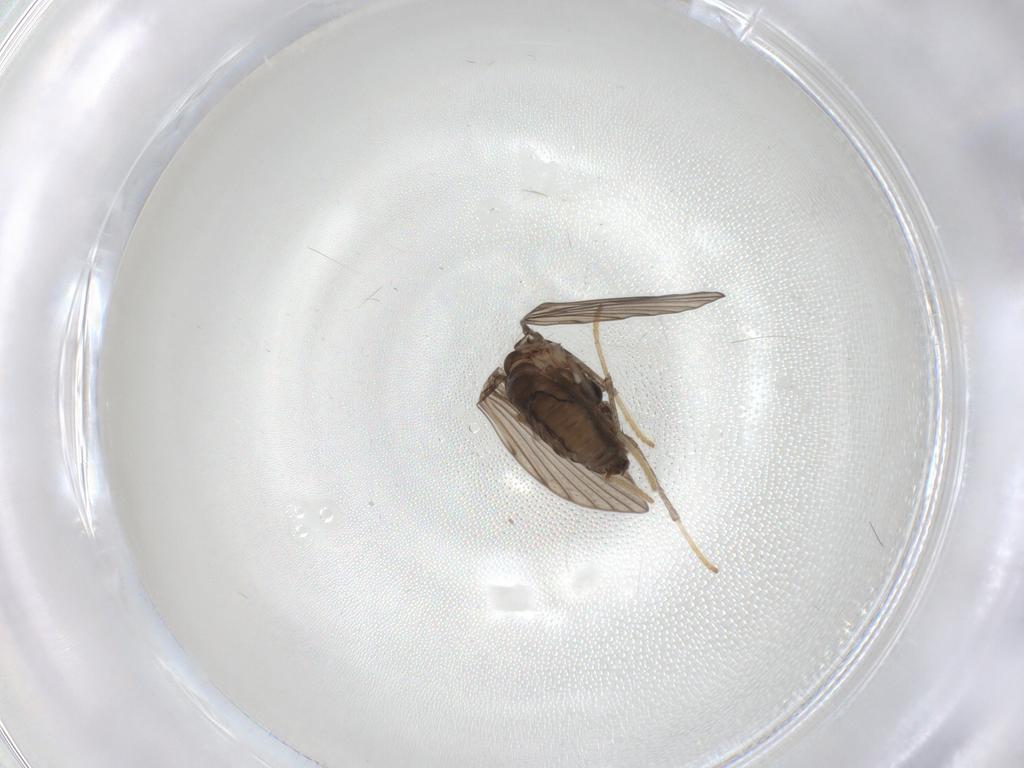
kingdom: Animalia
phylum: Arthropoda
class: Insecta
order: Diptera
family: Psychodidae
